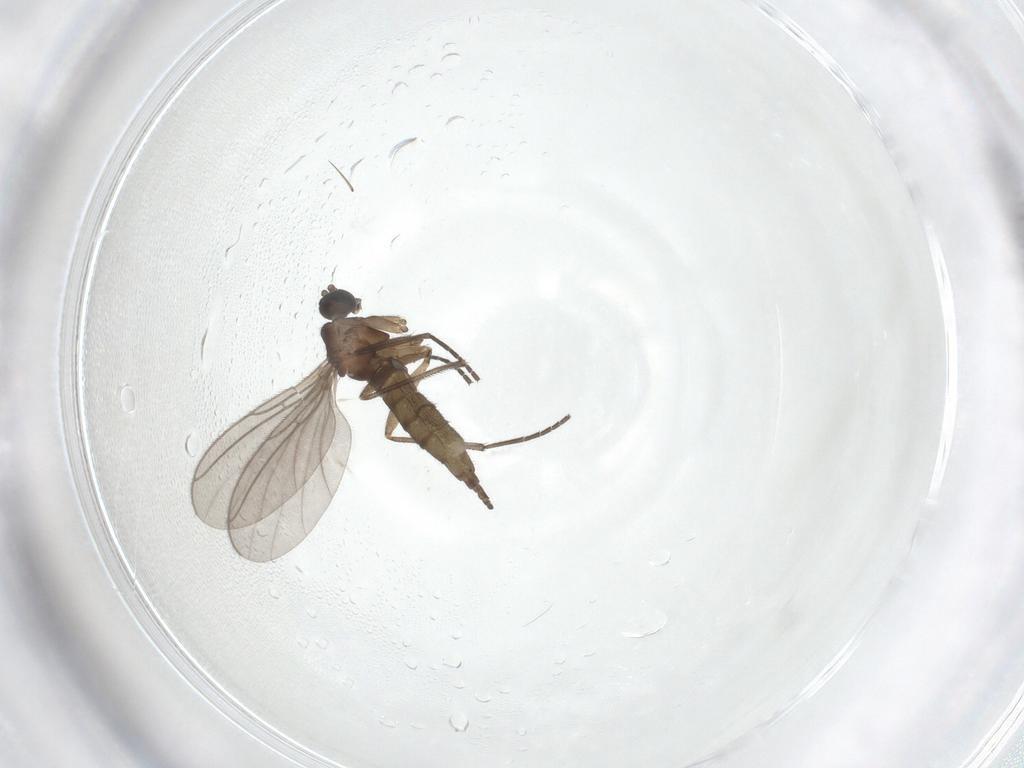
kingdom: Animalia
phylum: Arthropoda
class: Insecta
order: Diptera
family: Sciaridae
